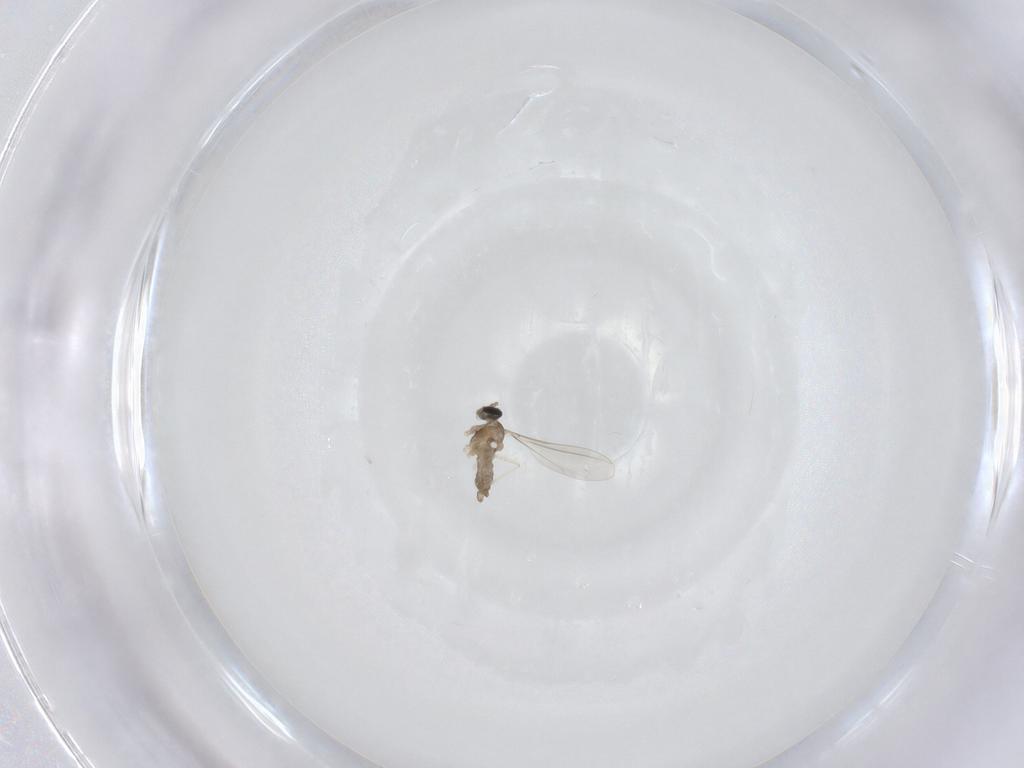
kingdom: Animalia
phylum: Arthropoda
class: Insecta
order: Diptera
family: Cecidomyiidae
